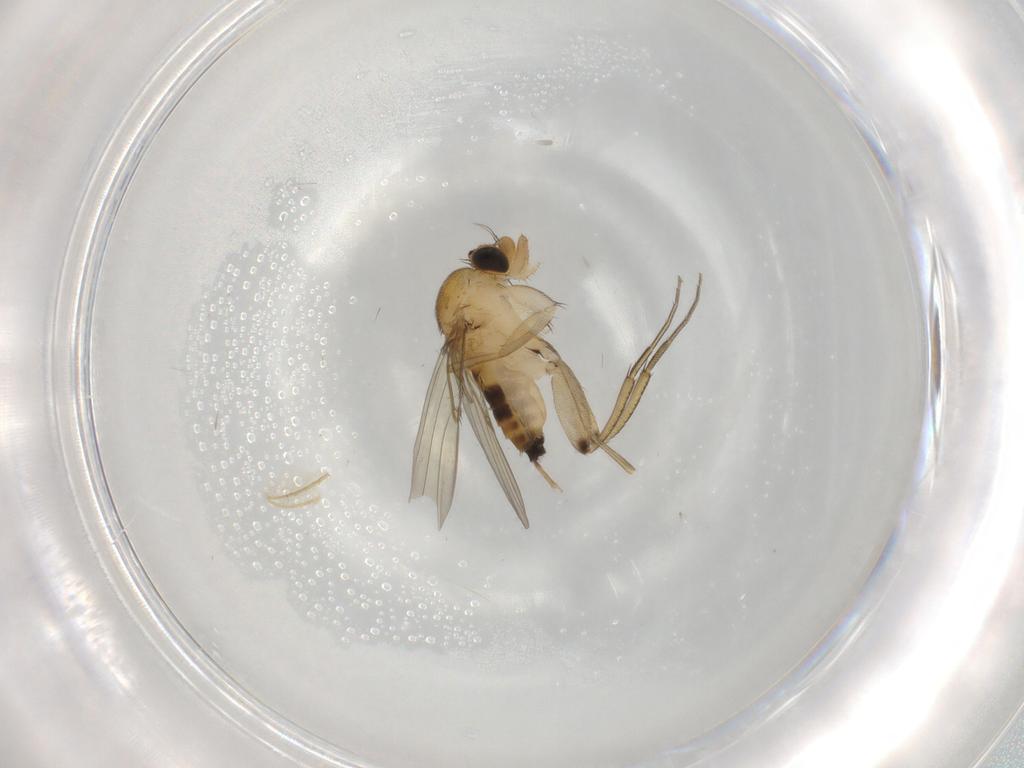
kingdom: Animalia
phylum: Arthropoda
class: Insecta
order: Diptera
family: Phoridae
